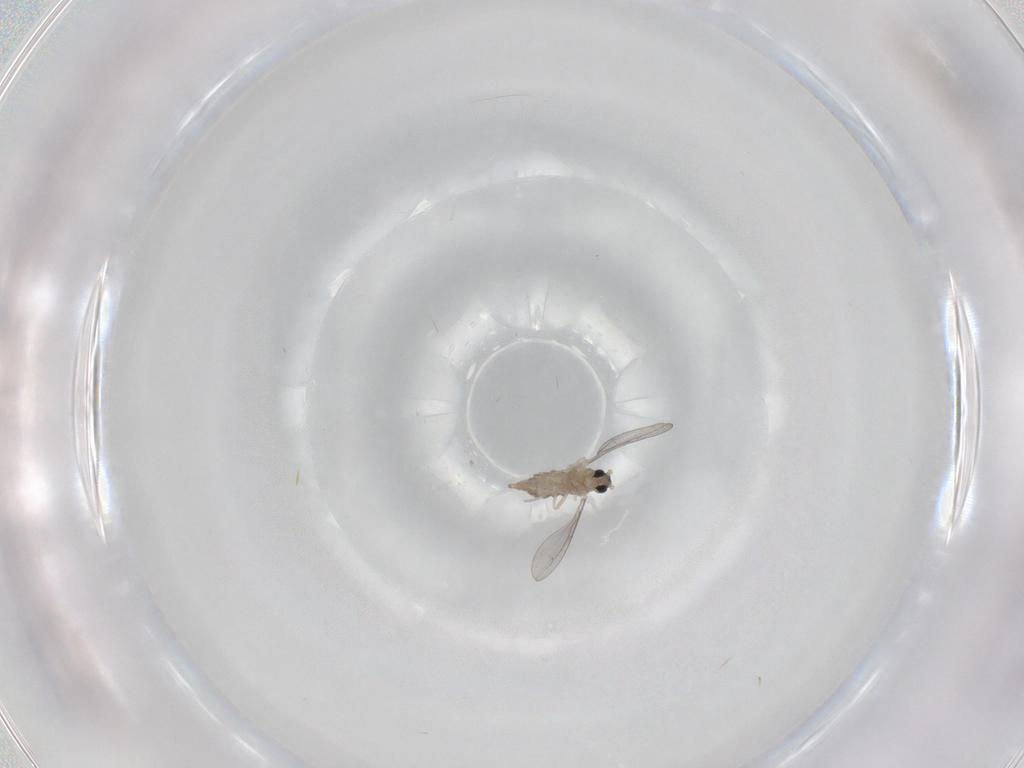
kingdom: Animalia
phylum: Arthropoda
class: Insecta
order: Diptera
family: Cecidomyiidae
